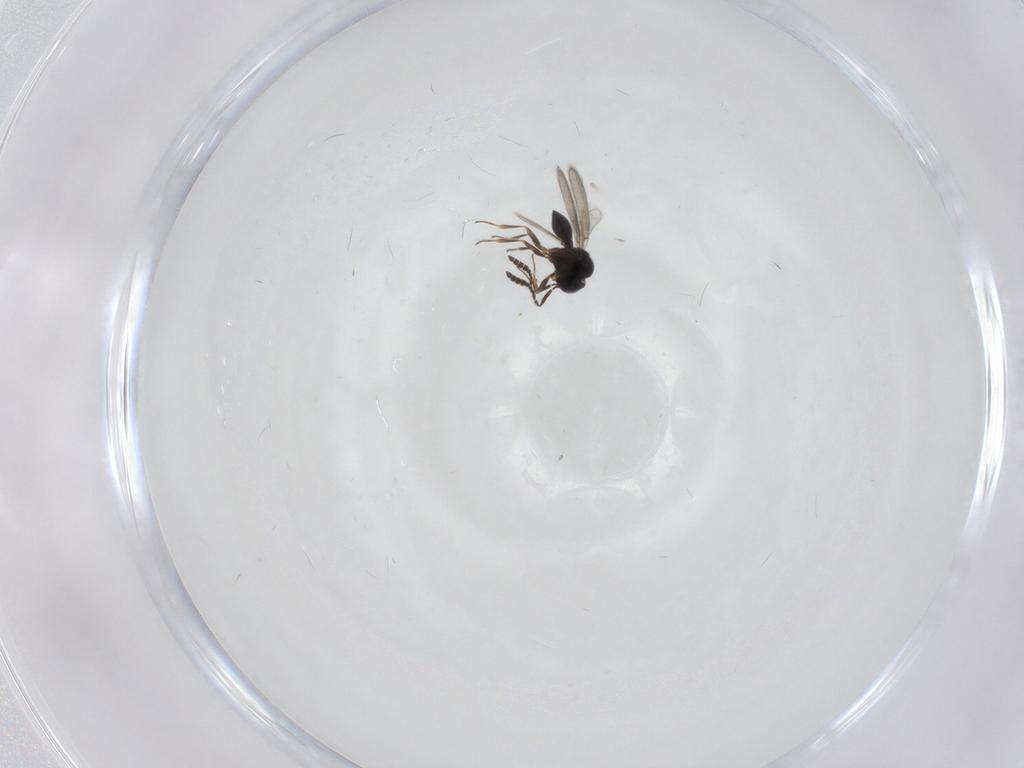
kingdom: Animalia
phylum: Arthropoda
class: Insecta
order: Hymenoptera
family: Scelionidae
